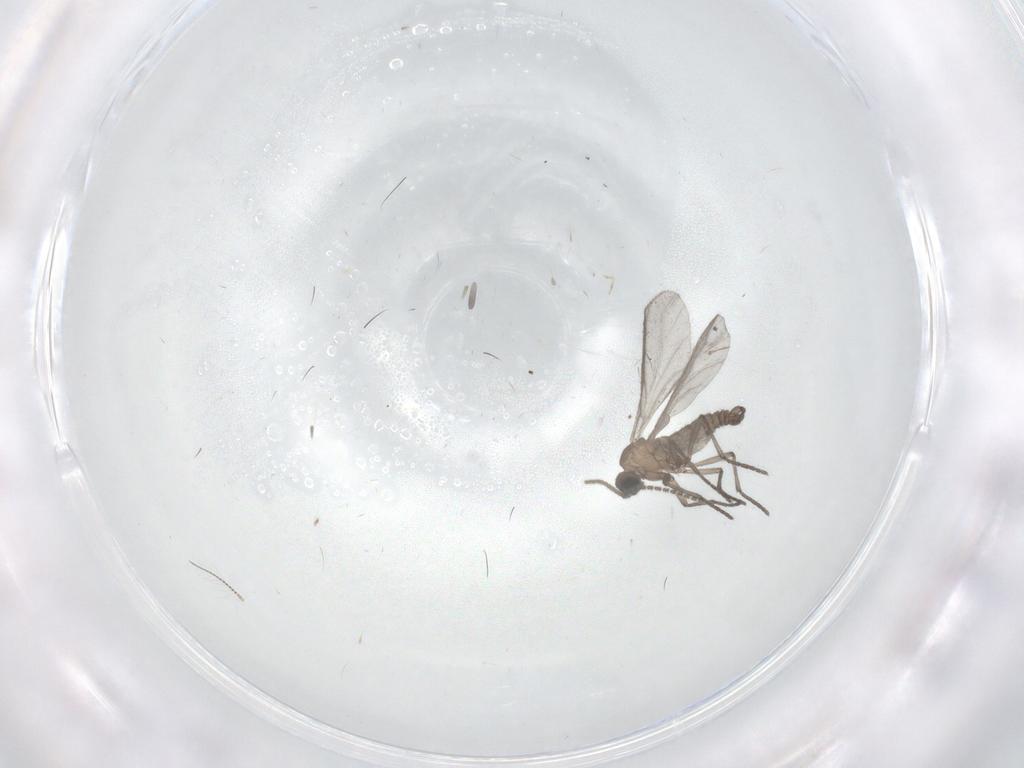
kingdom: Animalia
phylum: Arthropoda
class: Insecta
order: Diptera
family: Sciaridae
